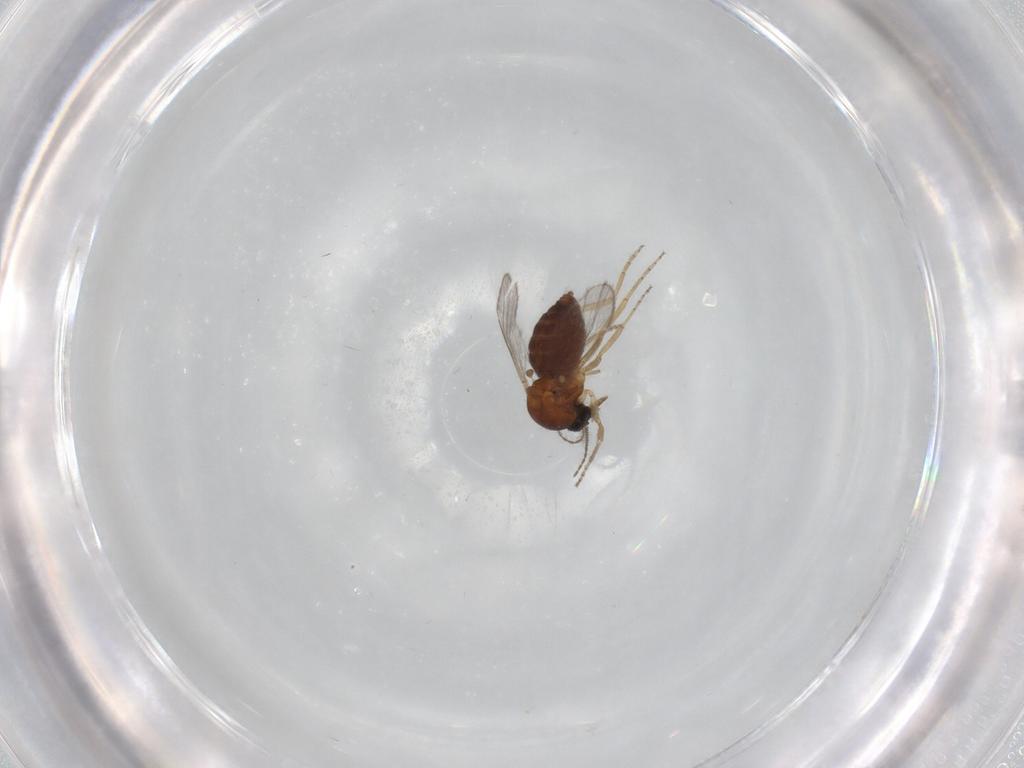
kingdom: Animalia
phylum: Arthropoda
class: Insecta
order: Diptera
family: Ceratopogonidae
